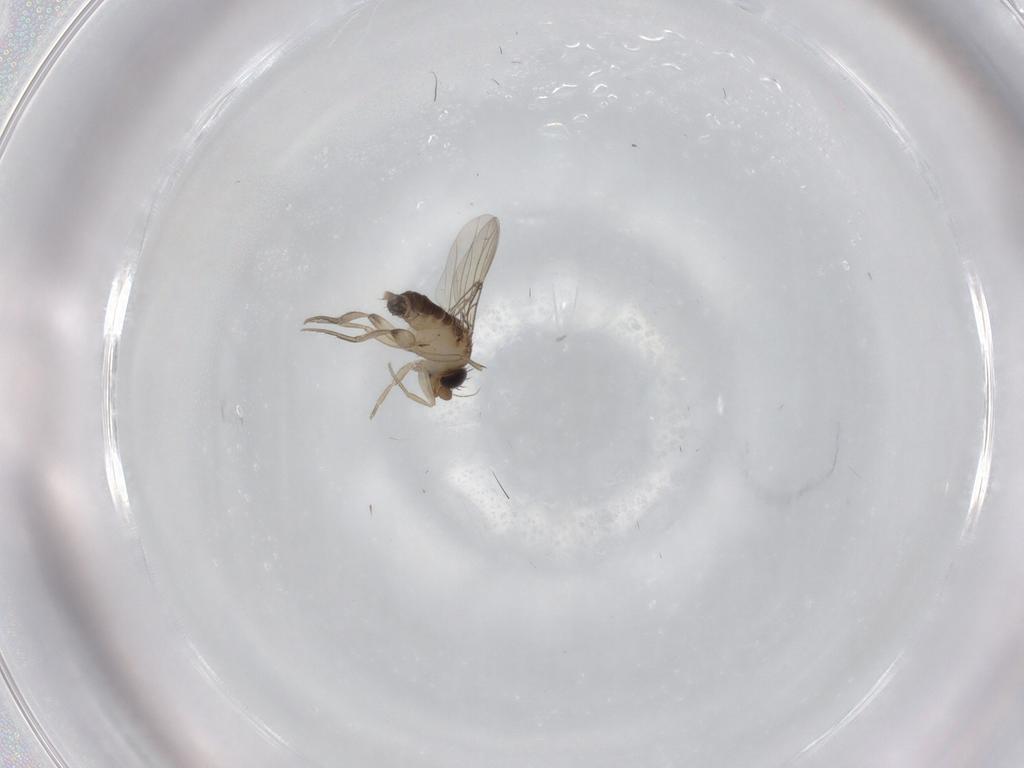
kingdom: Animalia
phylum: Arthropoda
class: Insecta
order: Diptera
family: Phoridae
